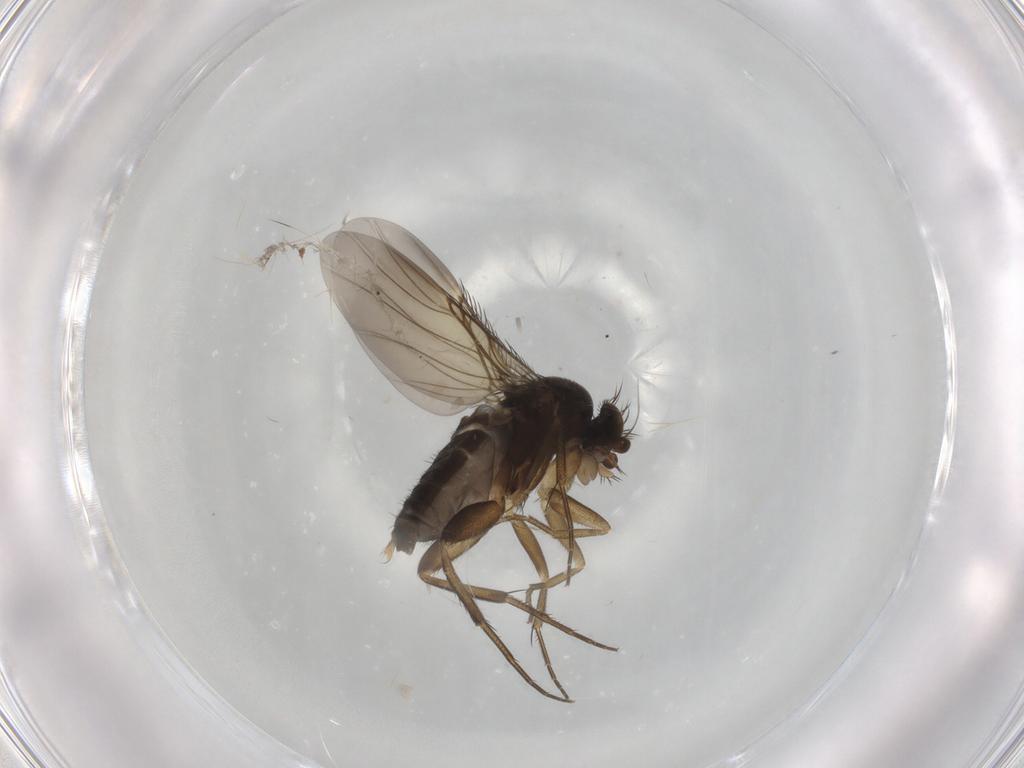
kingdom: Animalia
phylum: Arthropoda
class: Insecta
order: Diptera
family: Phoridae
